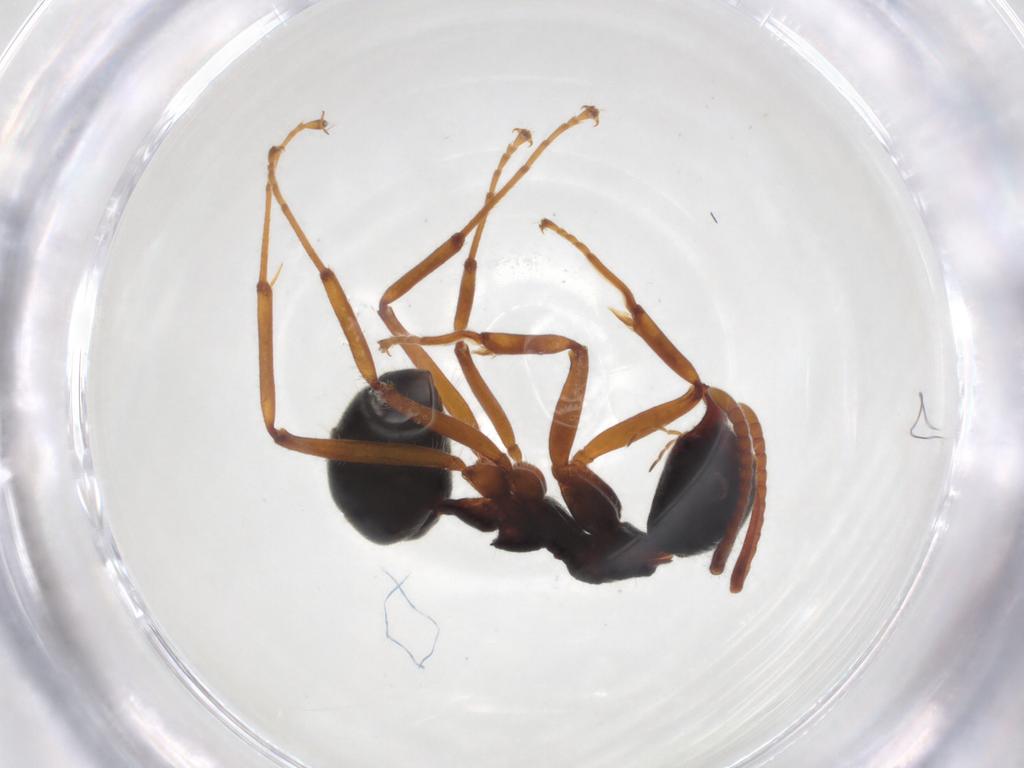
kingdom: Animalia
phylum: Arthropoda
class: Insecta
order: Hymenoptera
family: Formicidae
